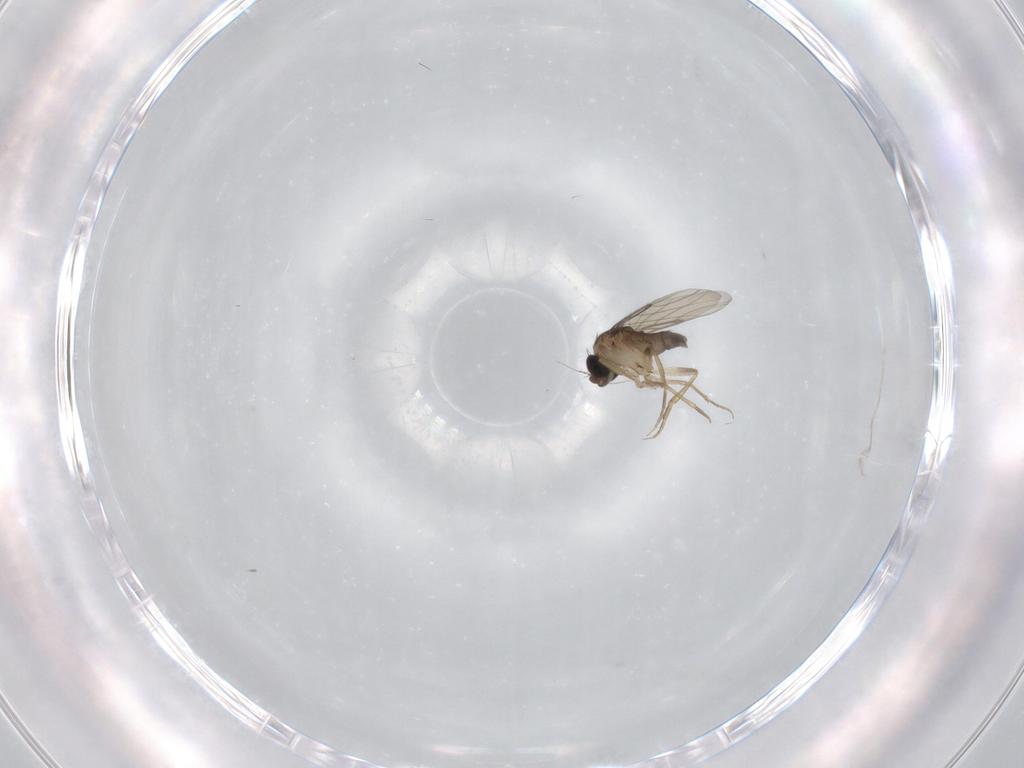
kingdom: Animalia
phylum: Arthropoda
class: Insecta
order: Diptera
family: Phoridae
